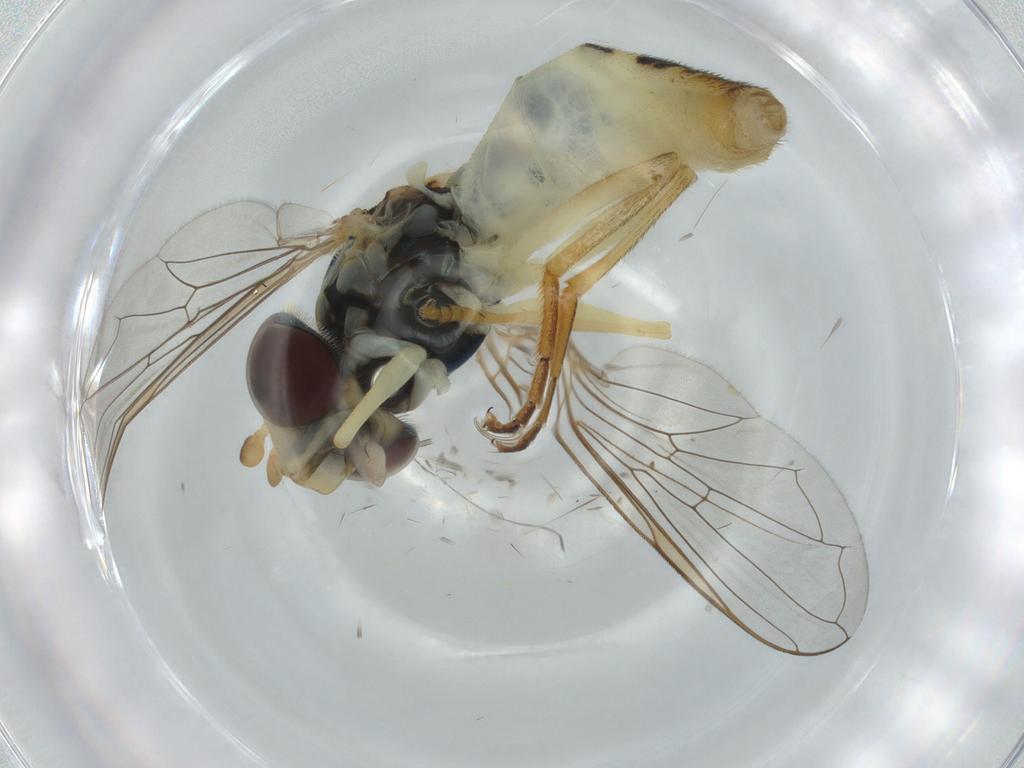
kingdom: Animalia
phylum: Arthropoda
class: Insecta
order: Diptera
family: Syrphidae
